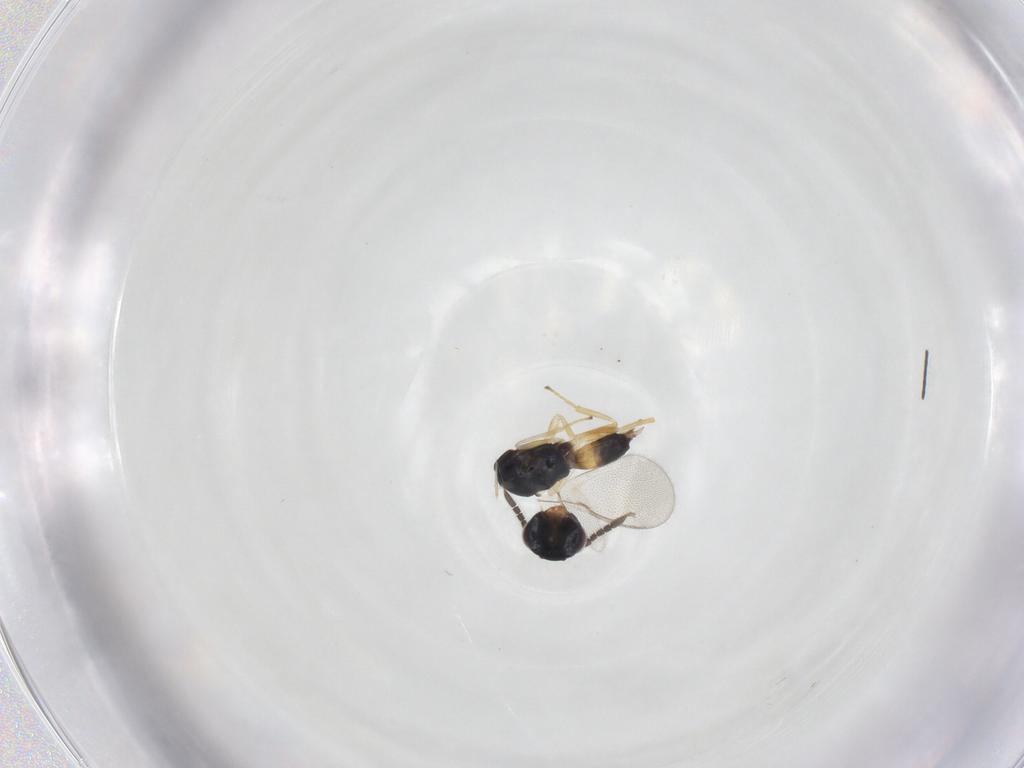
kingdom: Animalia
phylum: Arthropoda
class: Insecta
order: Hymenoptera
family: Pteromalidae
